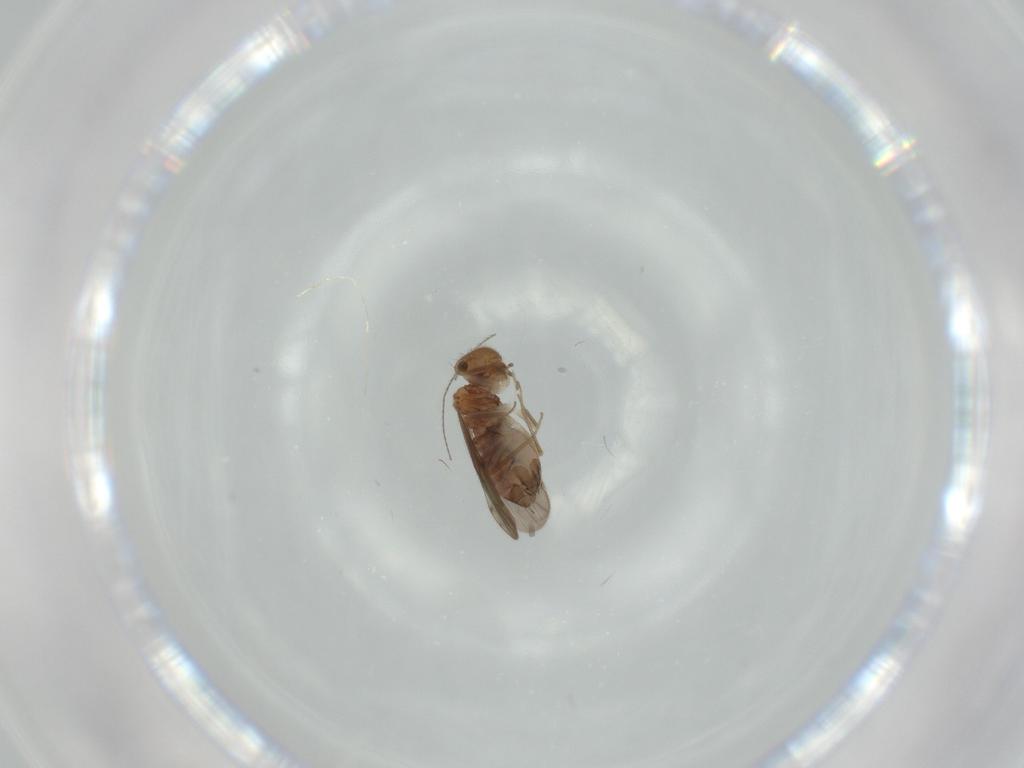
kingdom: Animalia
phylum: Arthropoda
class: Insecta
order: Psocodea
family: Ectopsocidae
